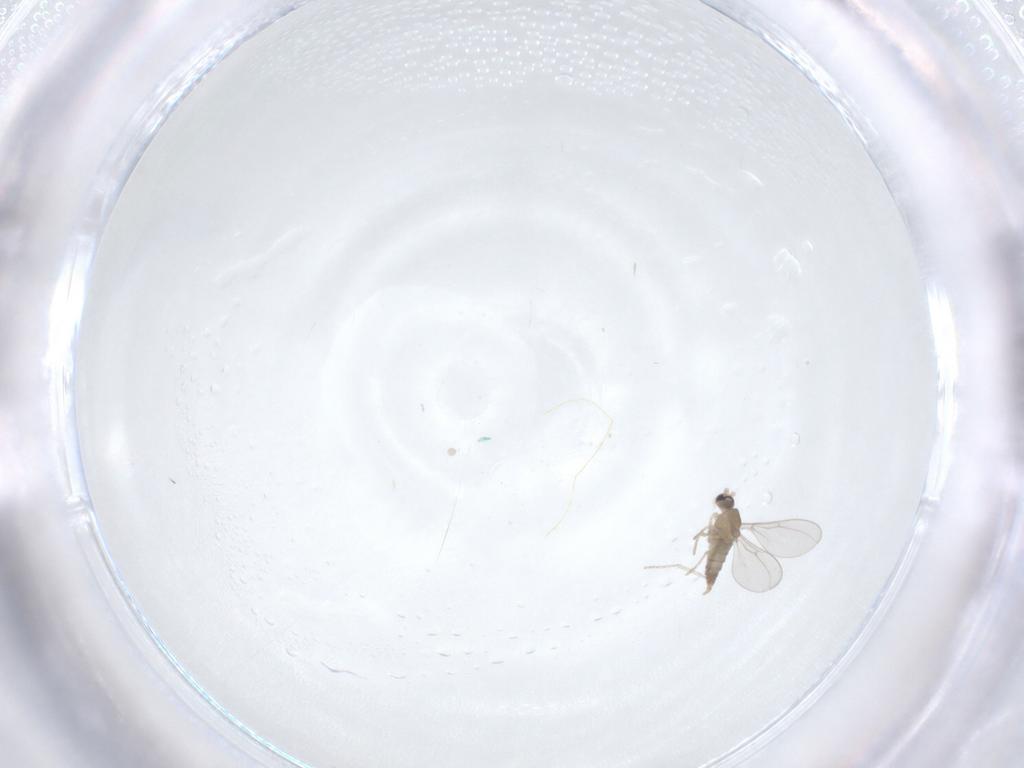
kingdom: Animalia
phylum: Arthropoda
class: Insecta
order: Diptera
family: Cecidomyiidae
